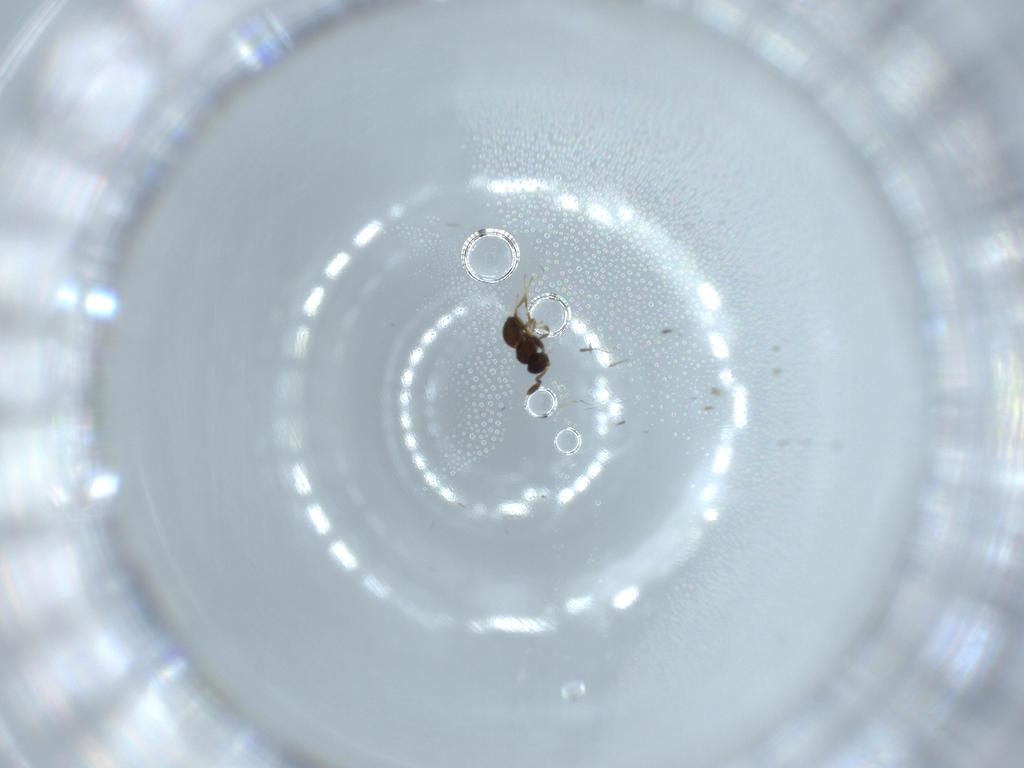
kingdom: Animalia
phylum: Arthropoda
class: Insecta
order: Hymenoptera
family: Scelionidae
